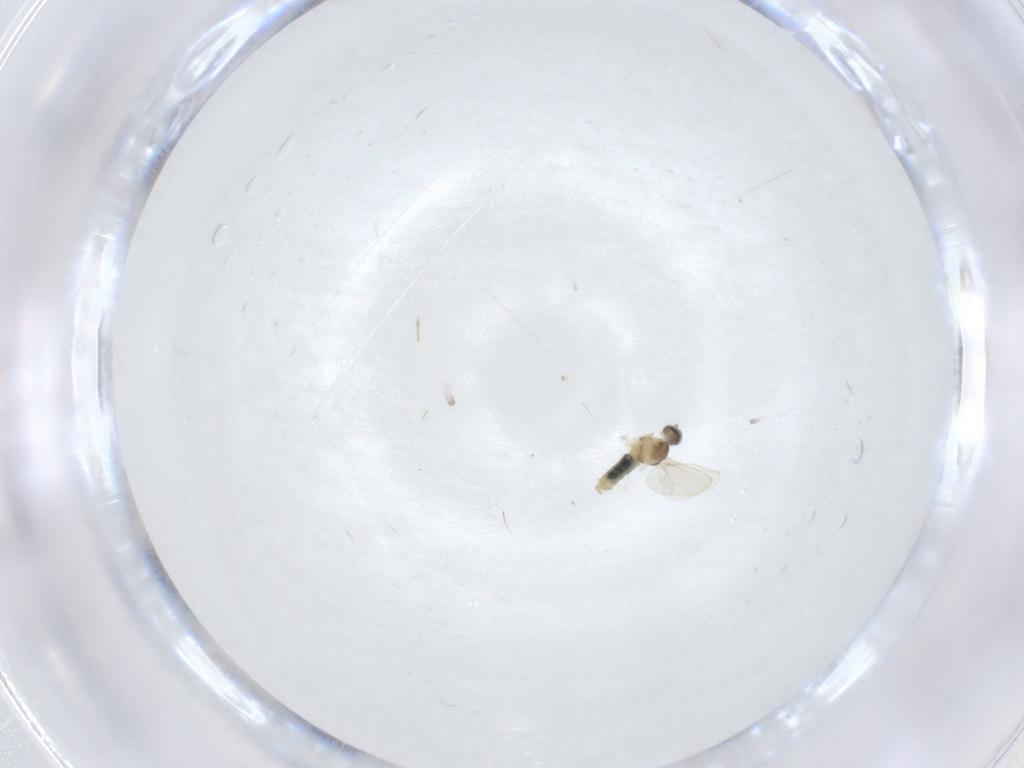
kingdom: Animalia
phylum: Arthropoda
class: Insecta
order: Diptera
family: Cecidomyiidae
